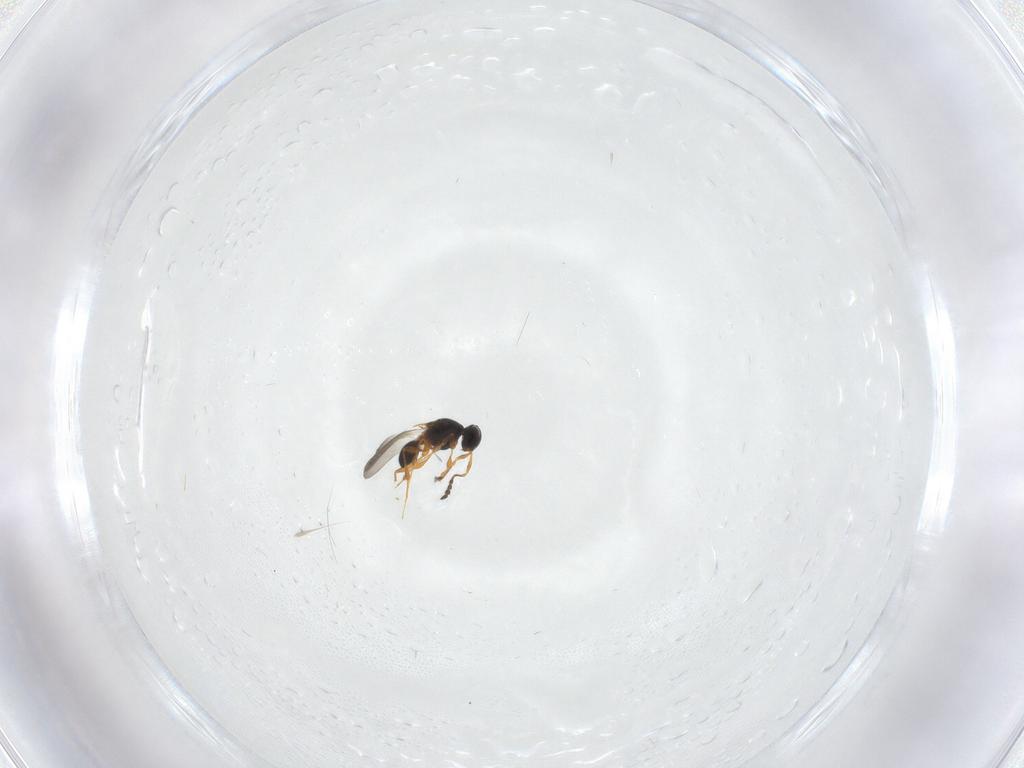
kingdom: Animalia
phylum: Arthropoda
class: Insecta
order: Hymenoptera
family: Platygastridae
